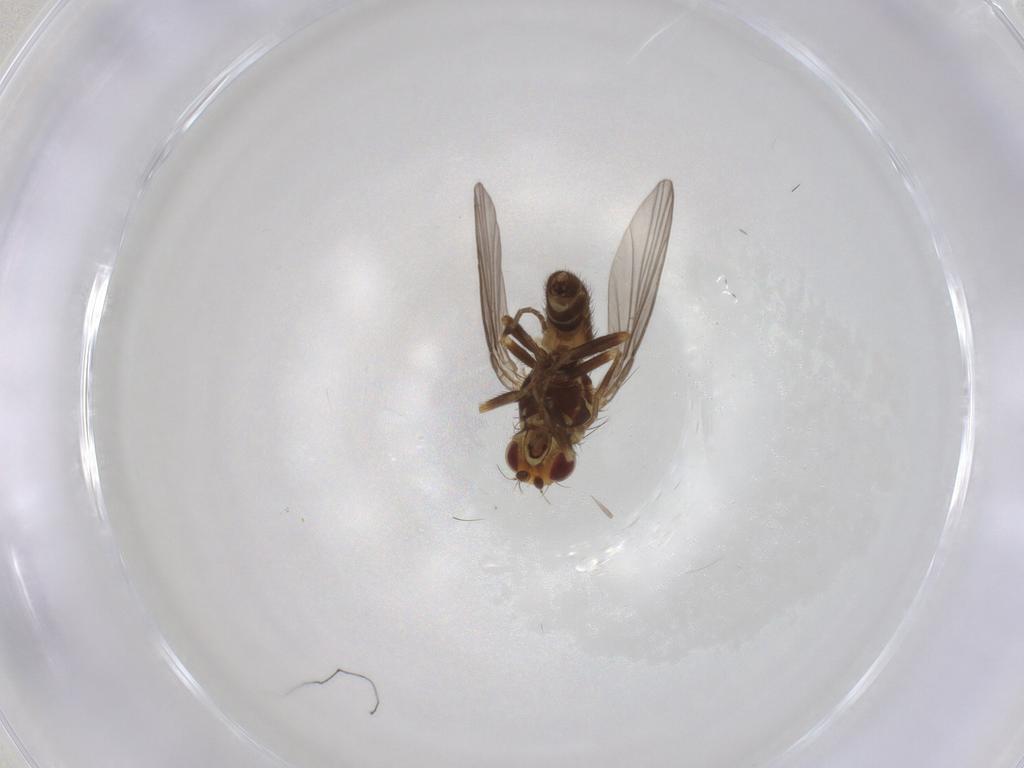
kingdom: Animalia
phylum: Arthropoda
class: Insecta
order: Diptera
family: Agromyzidae
